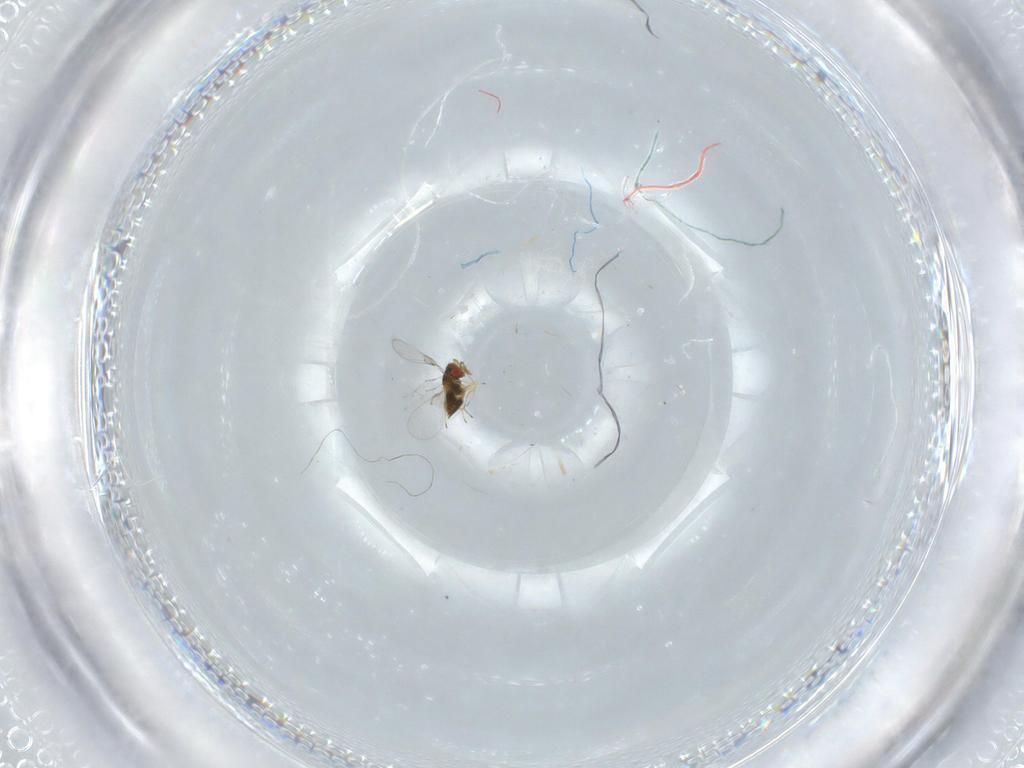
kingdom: Animalia
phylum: Arthropoda
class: Insecta
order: Hymenoptera
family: Trichogrammatidae
